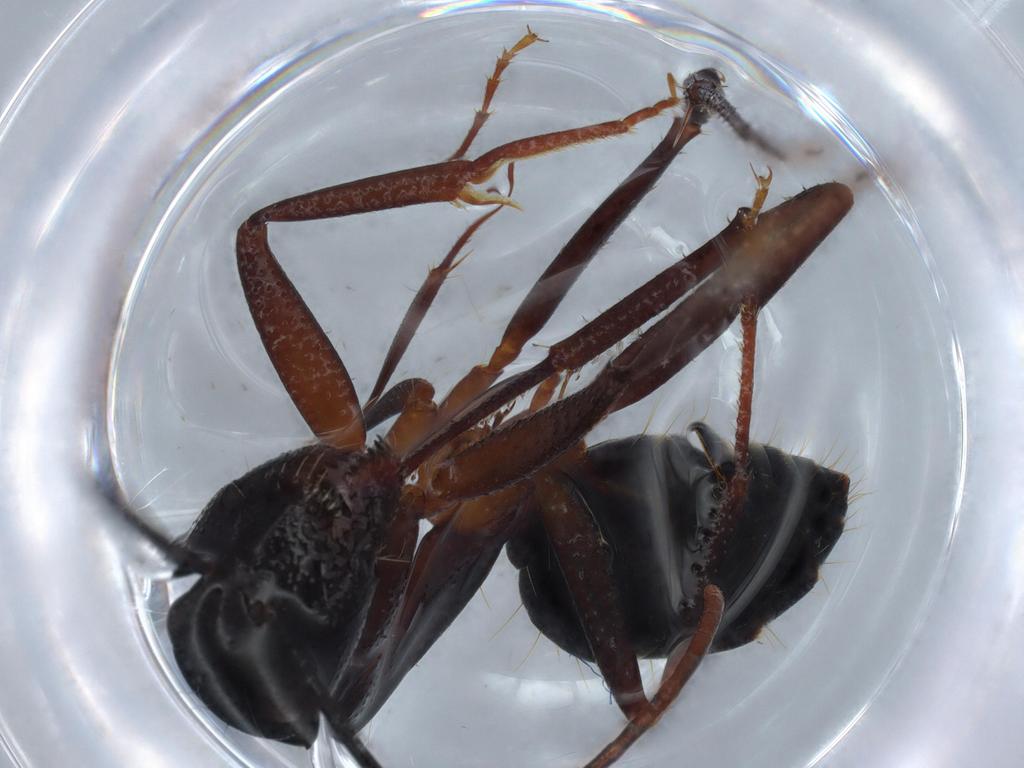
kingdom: Animalia
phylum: Arthropoda
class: Insecta
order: Hymenoptera
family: Formicidae
